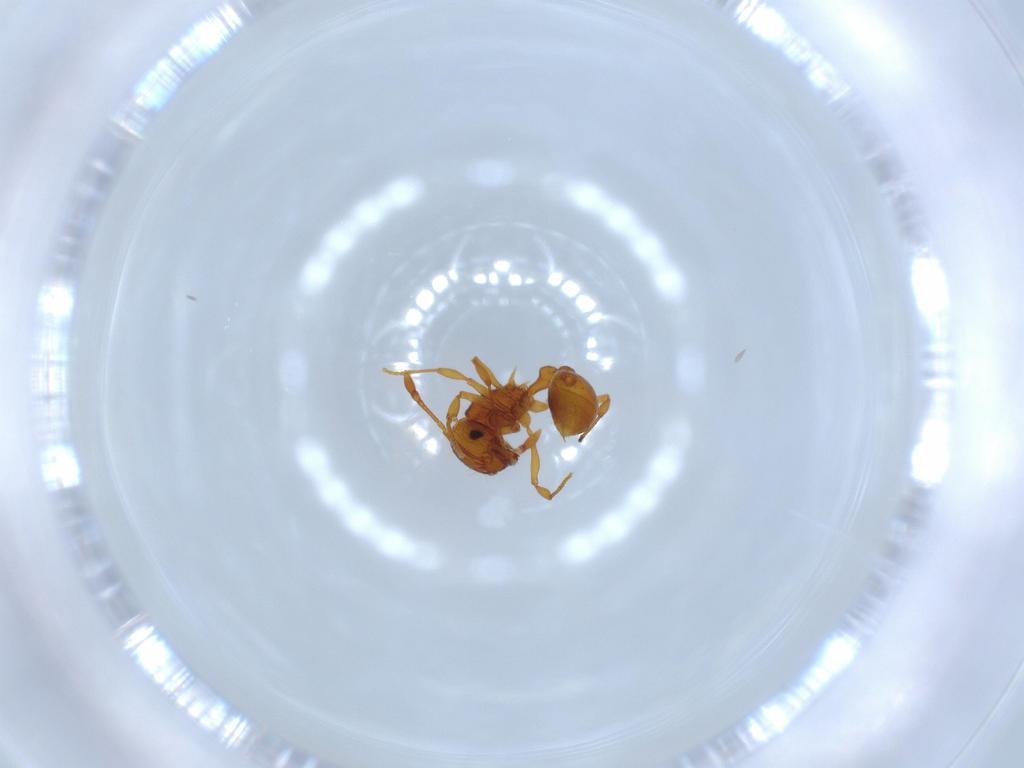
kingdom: Animalia
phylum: Arthropoda
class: Insecta
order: Hymenoptera
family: Formicidae
